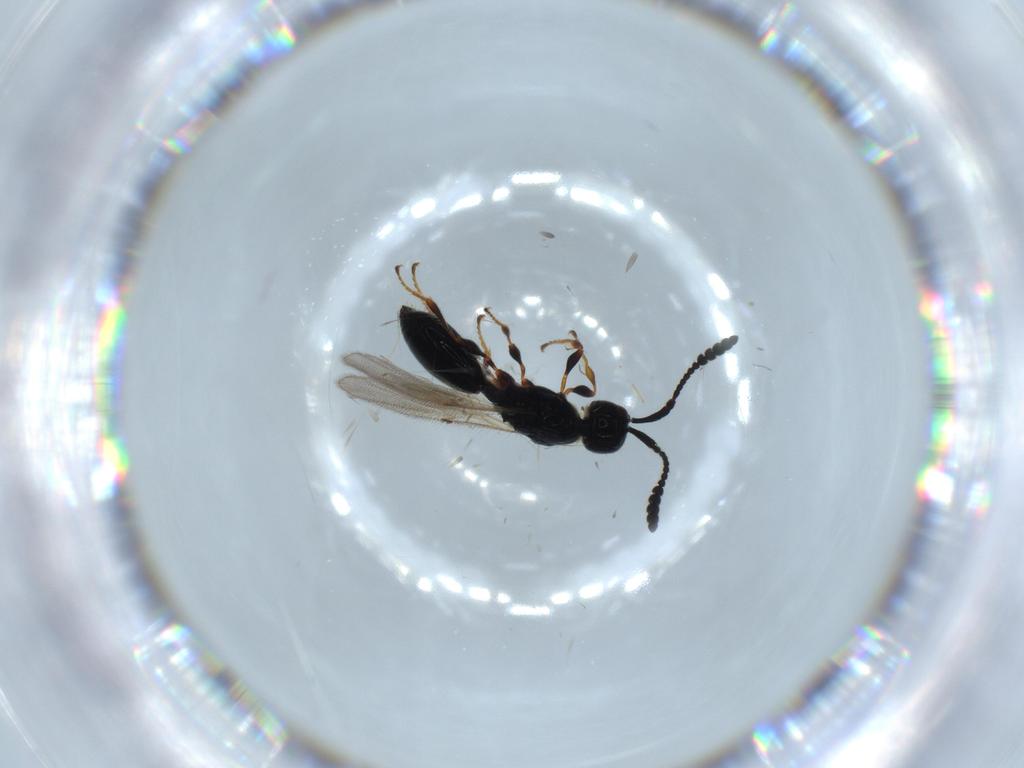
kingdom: Animalia
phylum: Arthropoda
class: Insecta
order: Hymenoptera
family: Diapriidae
